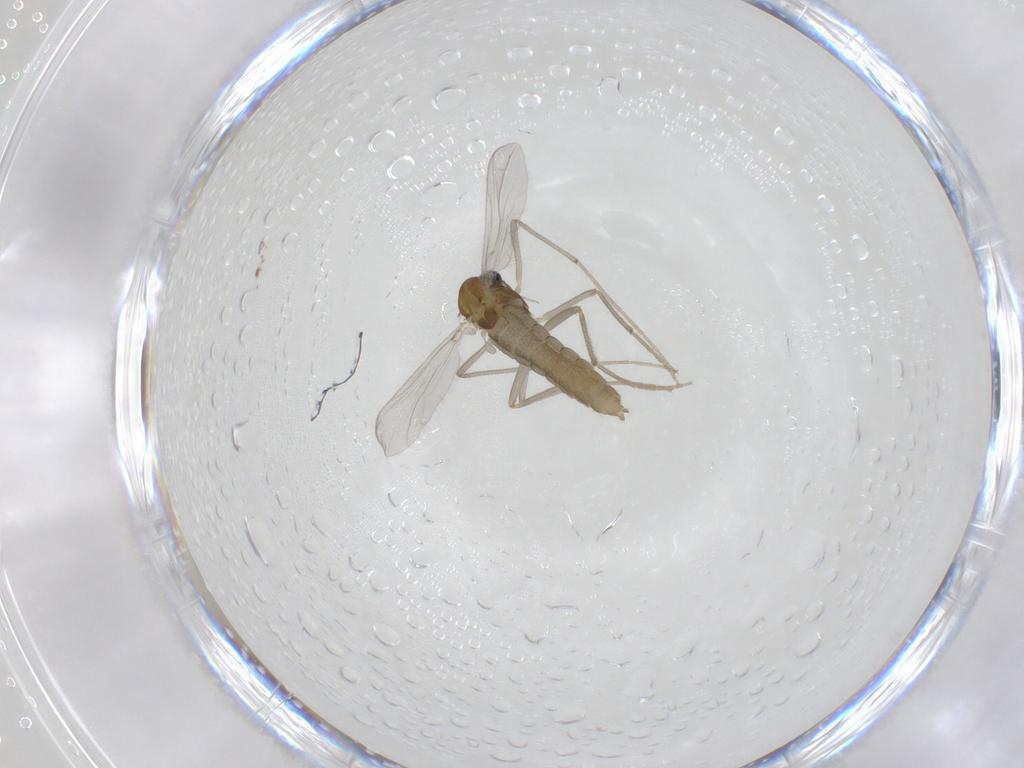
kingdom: Animalia
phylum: Arthropoda
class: Insecta
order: Diptera
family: Chironomidae
